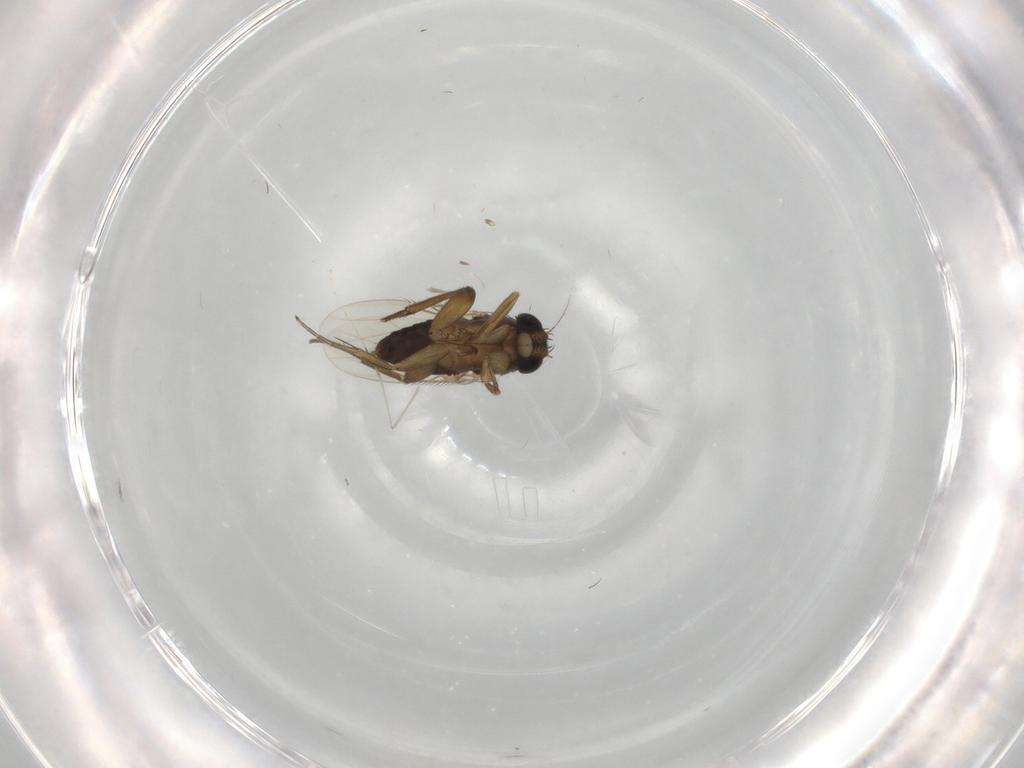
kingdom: Animalia
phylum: Arthropoda
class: Insecta
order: Diptera
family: Phoridae
